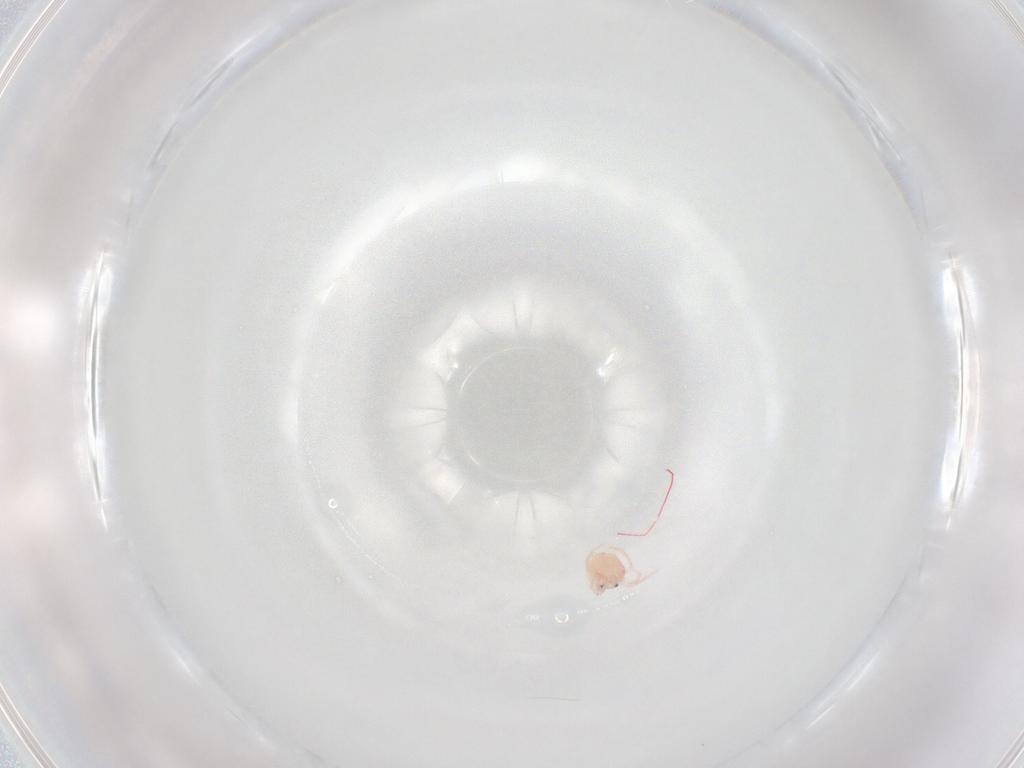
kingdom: Animalia
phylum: Arthropoda
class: Arachnida
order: Trombidiformes
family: Lebertiidae
